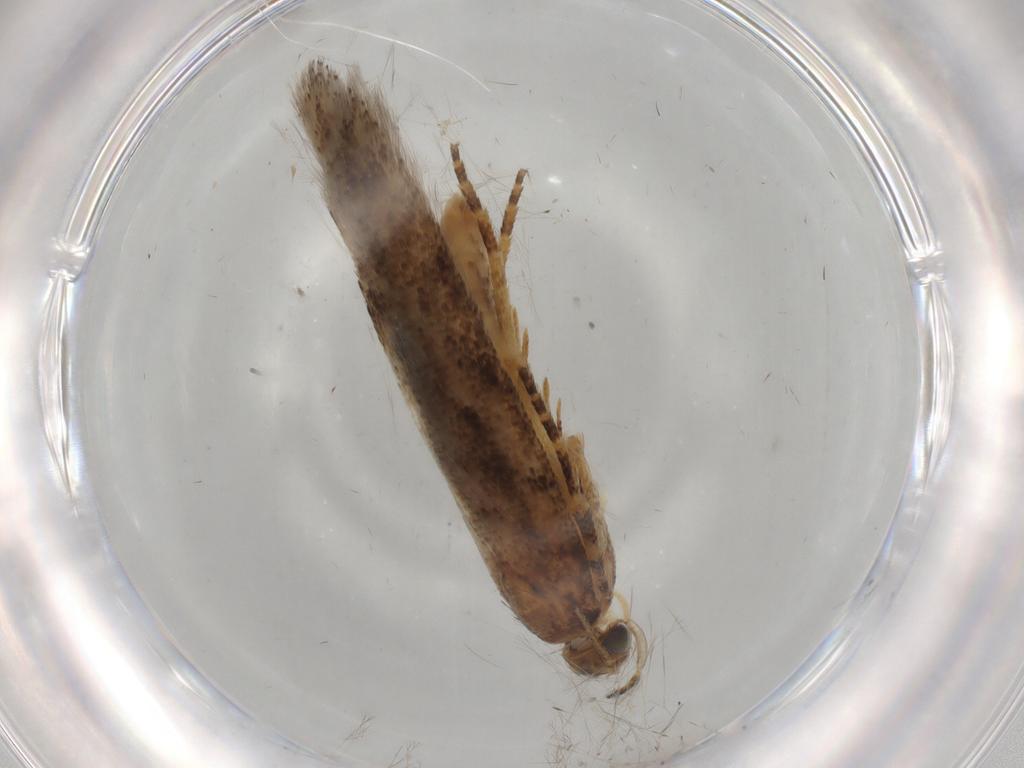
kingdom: Animalia
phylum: Arthropoda
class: Insecta
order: Lepidoptera
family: Gelechiidae
